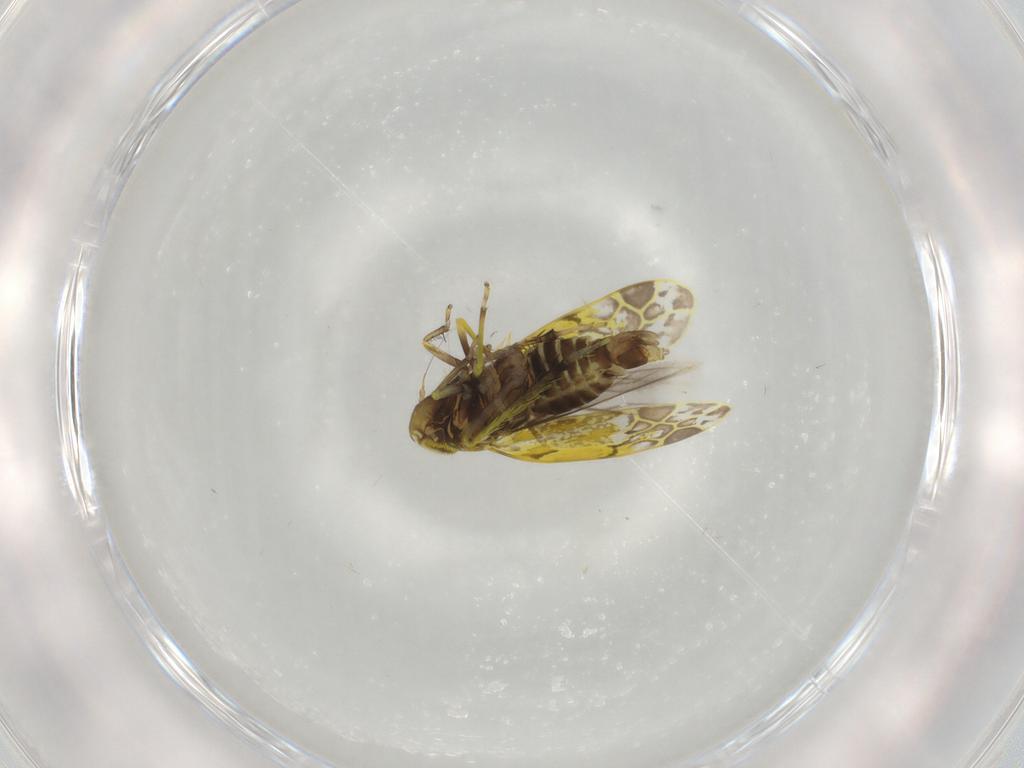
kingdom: Animalia
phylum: Arthropoda
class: Insecta
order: Hemiptera
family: Cicadellidae
